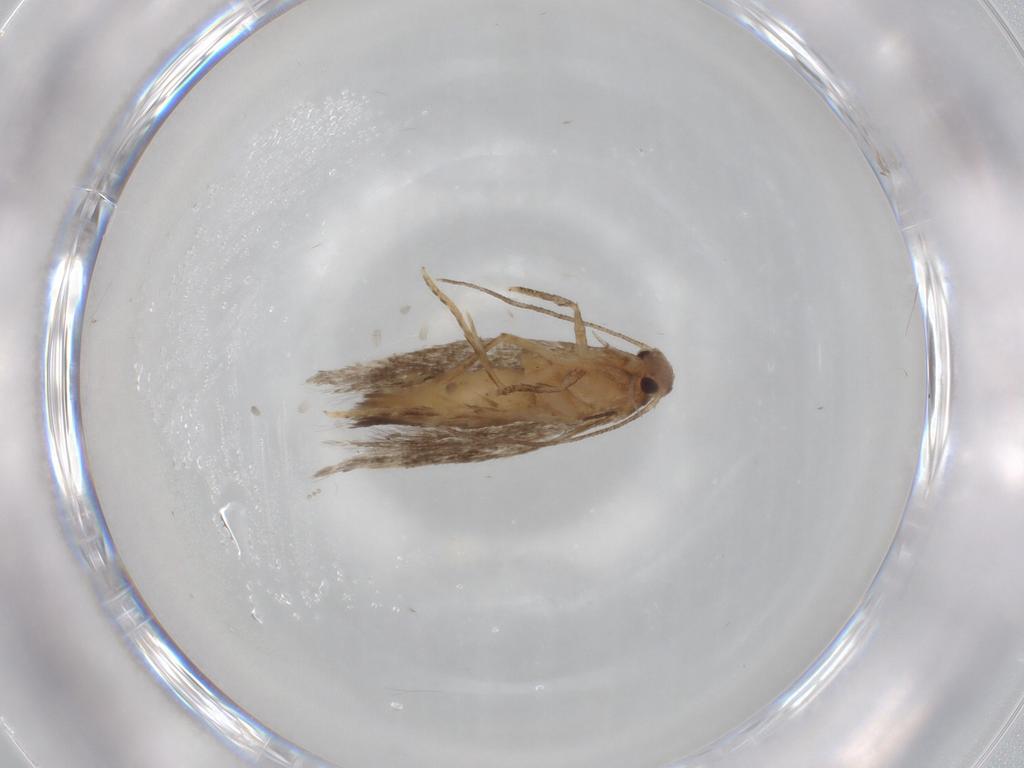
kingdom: Animalia
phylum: Arthropoda
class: Insecta
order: Lepidoptera
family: Elachistidae
